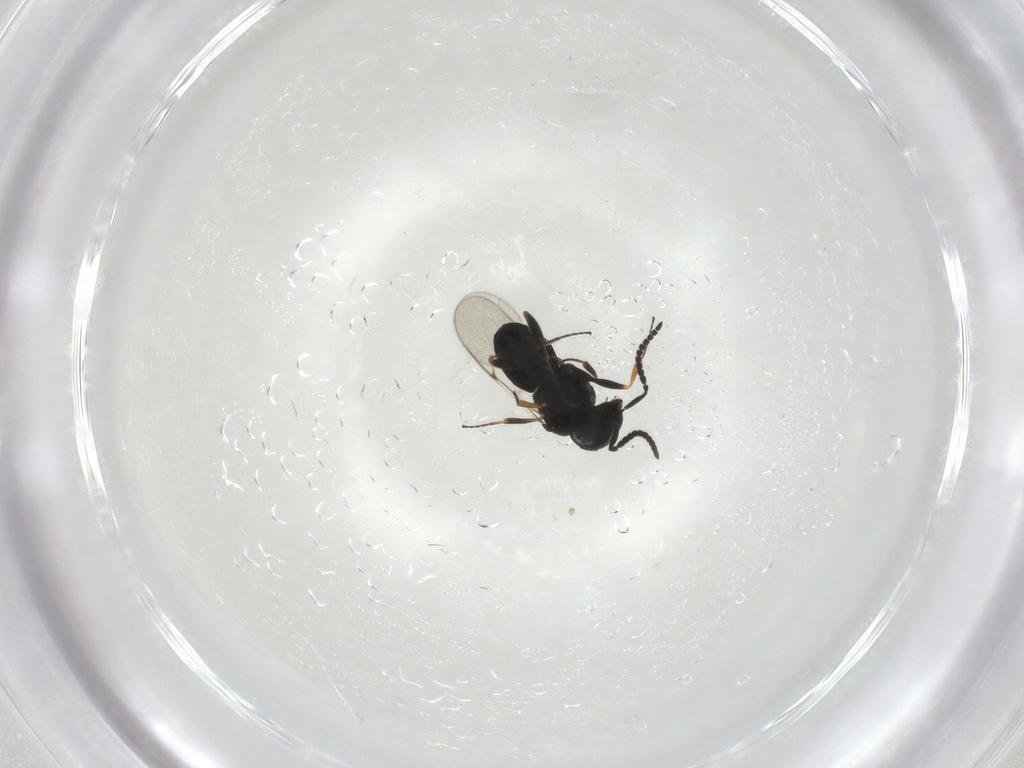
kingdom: Animalia
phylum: Arthropoda
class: Insecta
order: Hymenoptera
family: Scelionidae
